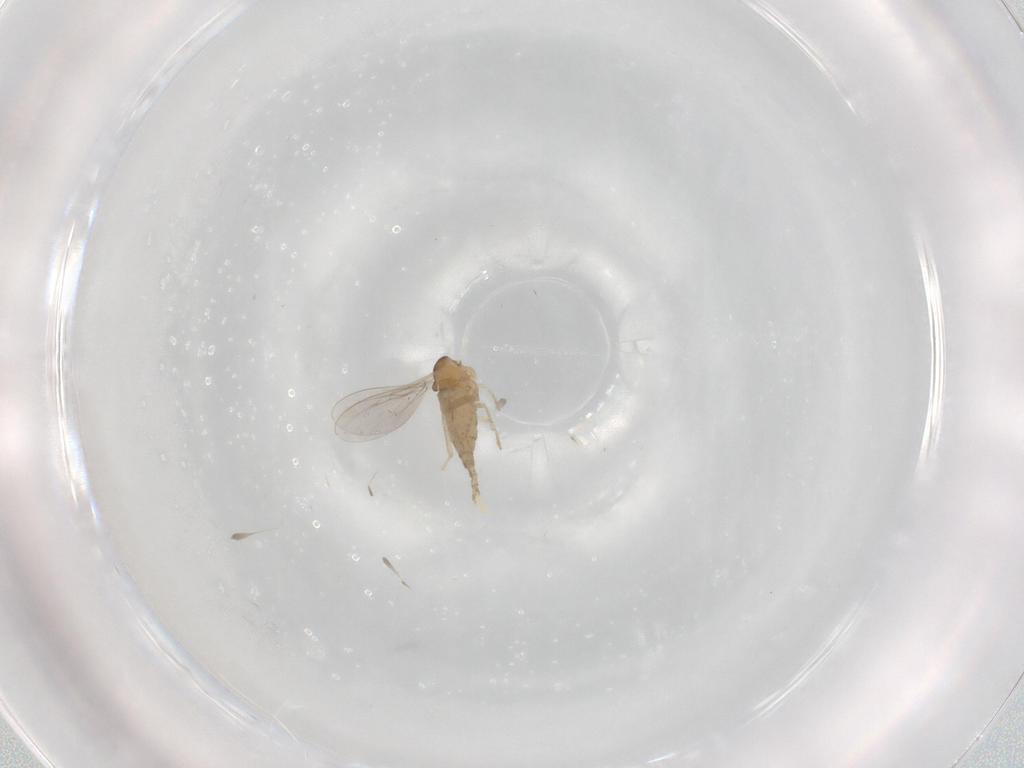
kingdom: Animalia
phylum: Arthropoda
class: Insecta
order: Diptera
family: Cecidomyiidae
